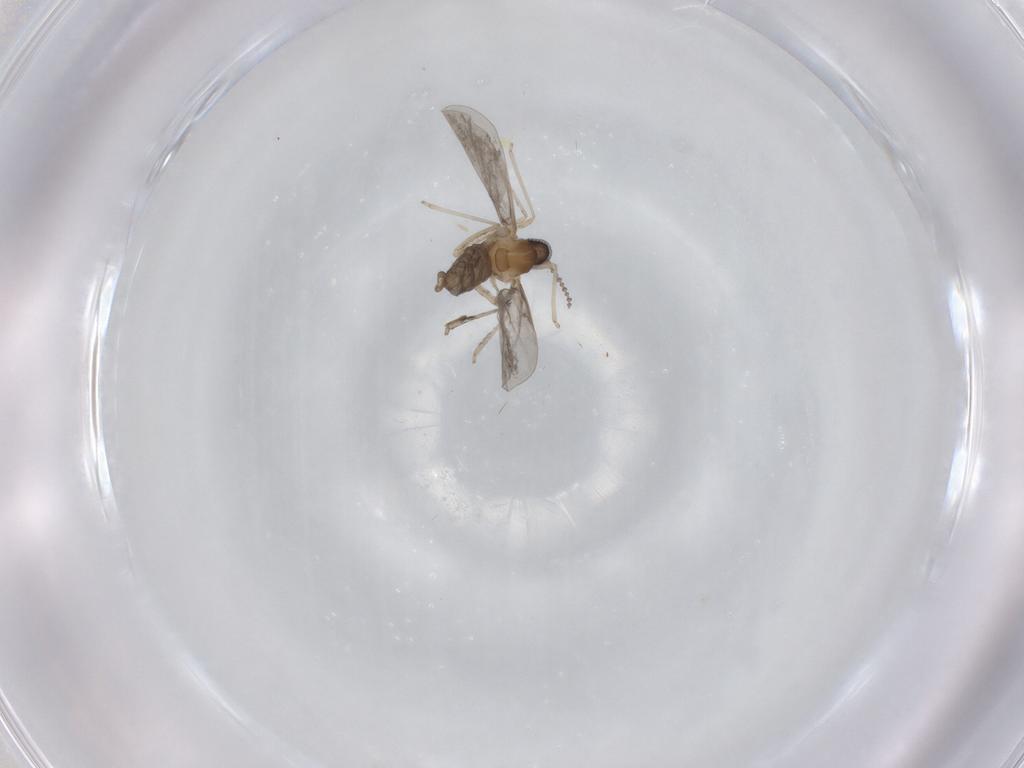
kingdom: Animalia
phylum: Arthropoda
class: Insecta
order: Diptera
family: Cecidomyiidae
